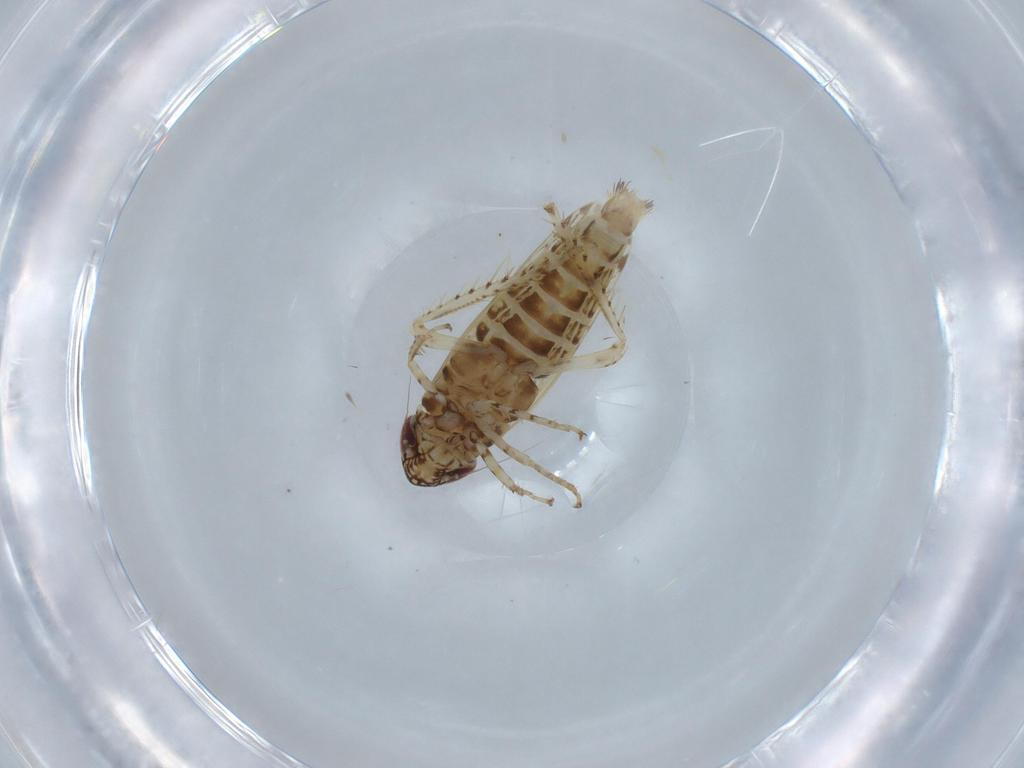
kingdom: Animalia
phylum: Arthropoda
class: Insecta
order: Hemiptera
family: Cicadellidae
